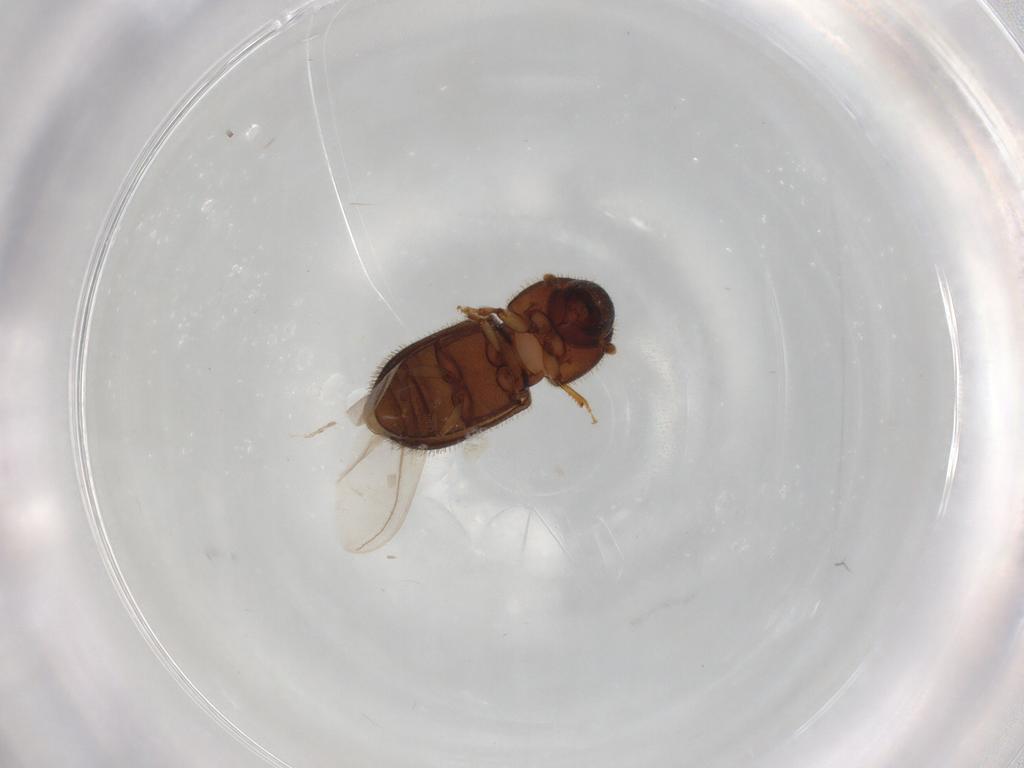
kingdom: Animalia
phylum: Arthropoda
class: Insecta
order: Coleoptera
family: Curculionidae
